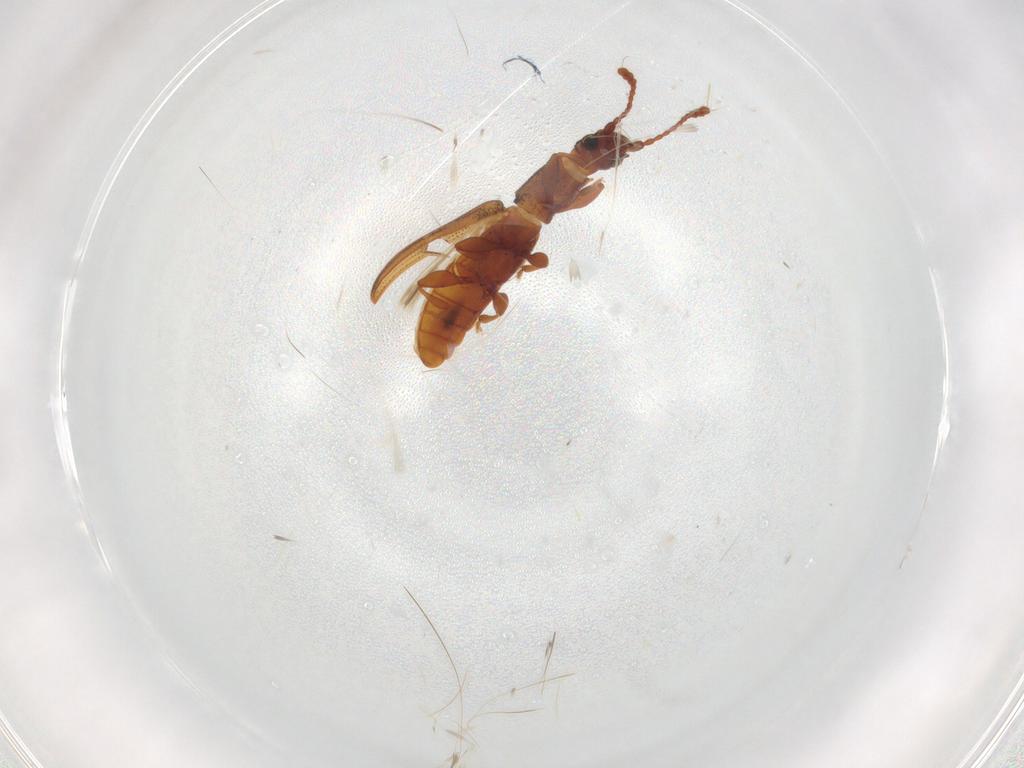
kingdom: Animalia
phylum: Arthropoda
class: Insecta
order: Coleoptera
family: Silvanidae
